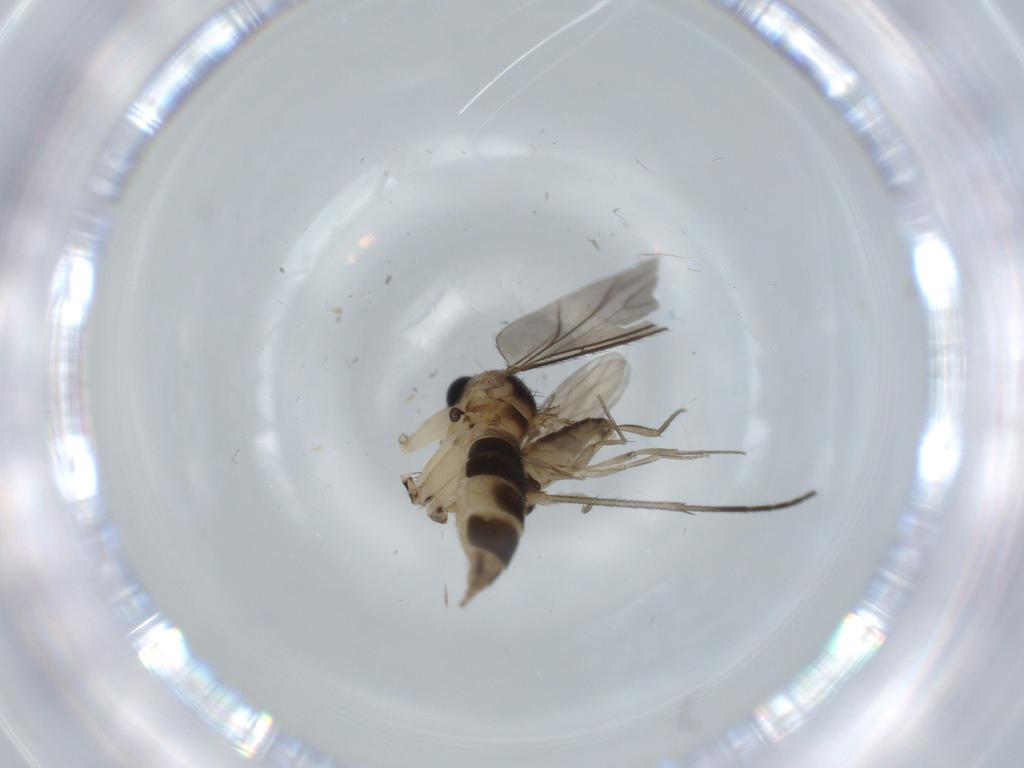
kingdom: Animalia
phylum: Arthropoda
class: Insecta
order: Diptera
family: Sciaridae
